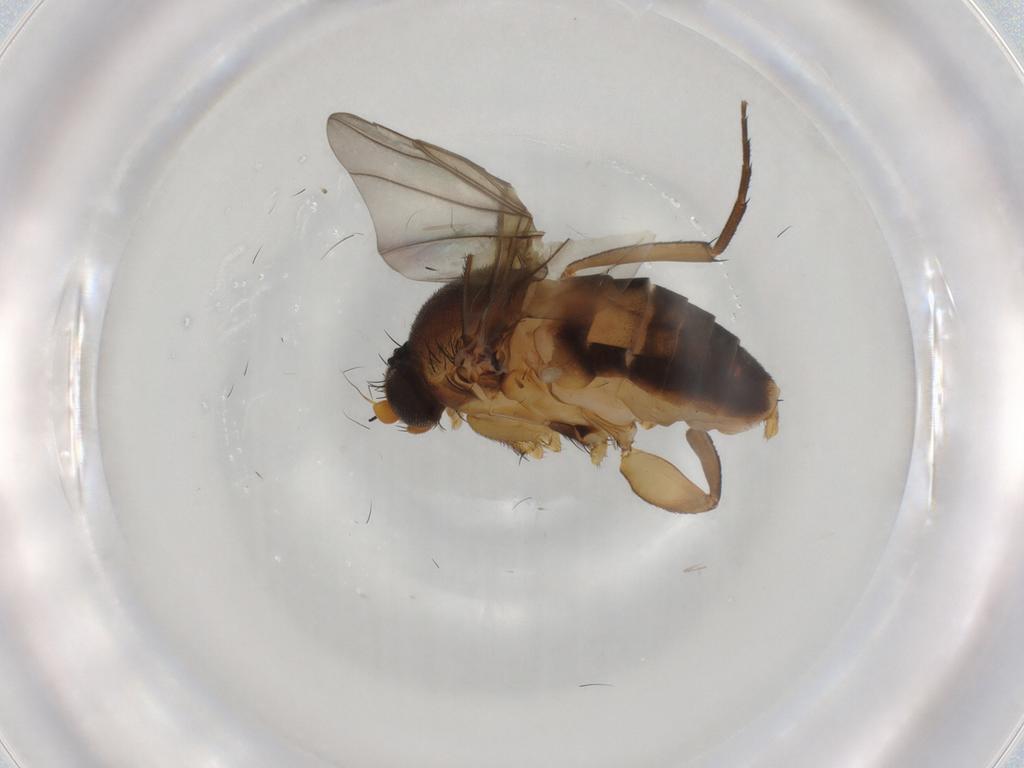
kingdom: Animalia
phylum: Arthropoda
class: Insecta
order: Diptera
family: Phoridae
